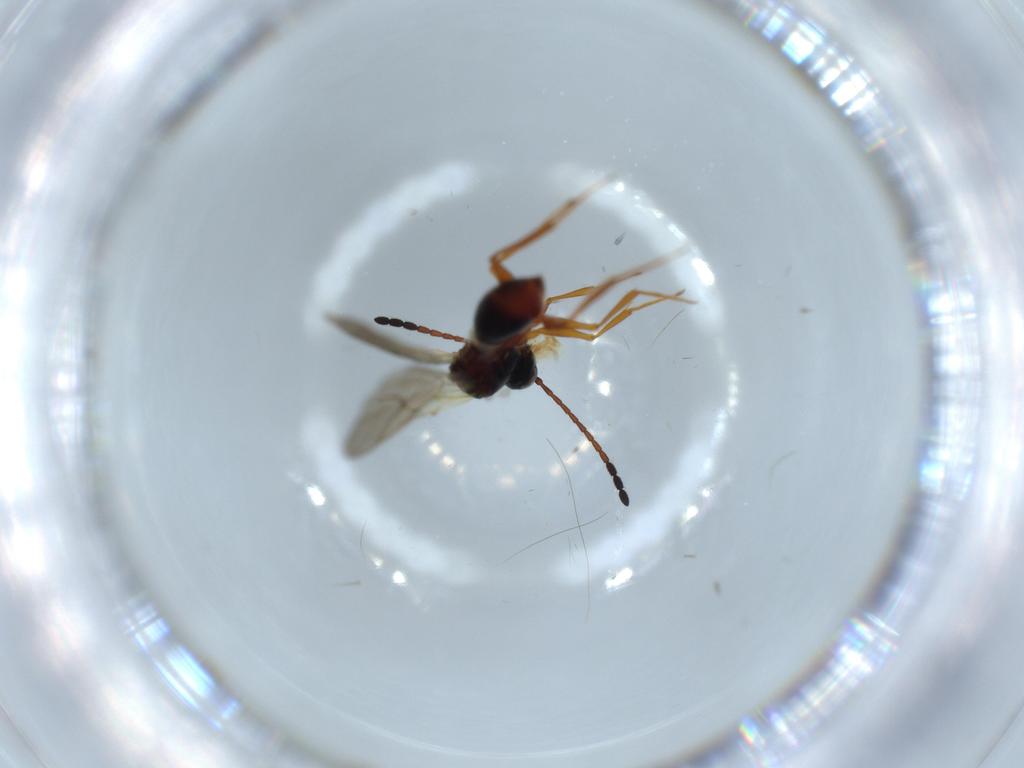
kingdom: Animalia
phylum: Arthropoda
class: Insecta
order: Hymenoptera
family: Figitidae
